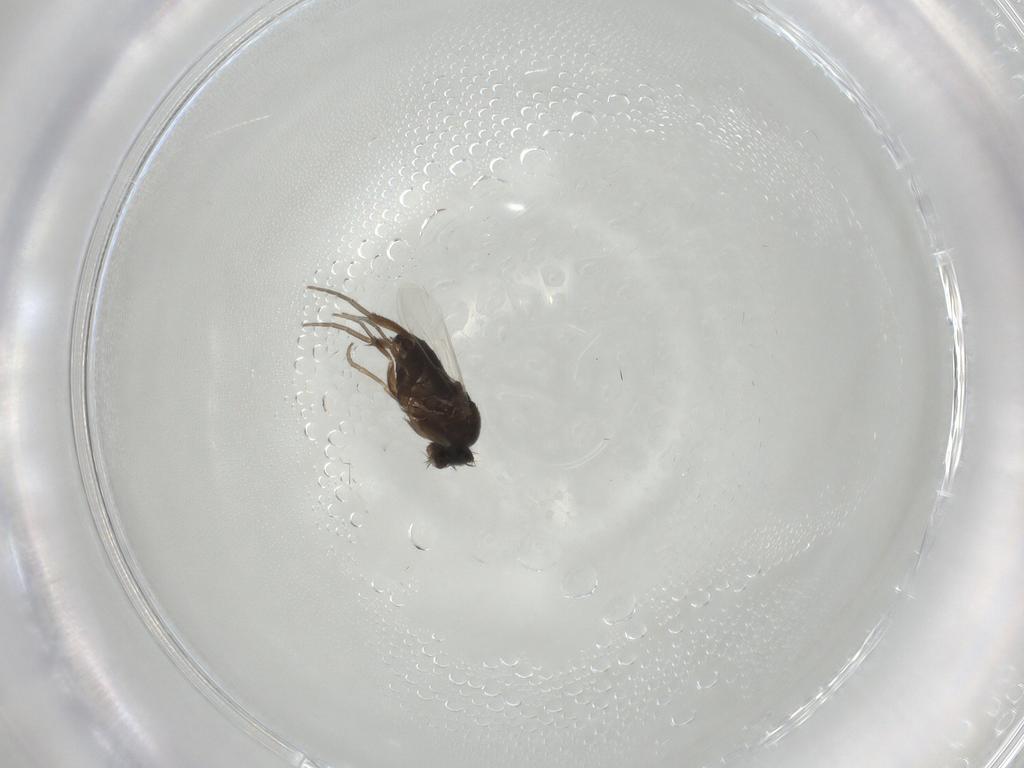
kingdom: Animalia
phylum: Arthropoda
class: Insecta
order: Diptera
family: Phoridae
